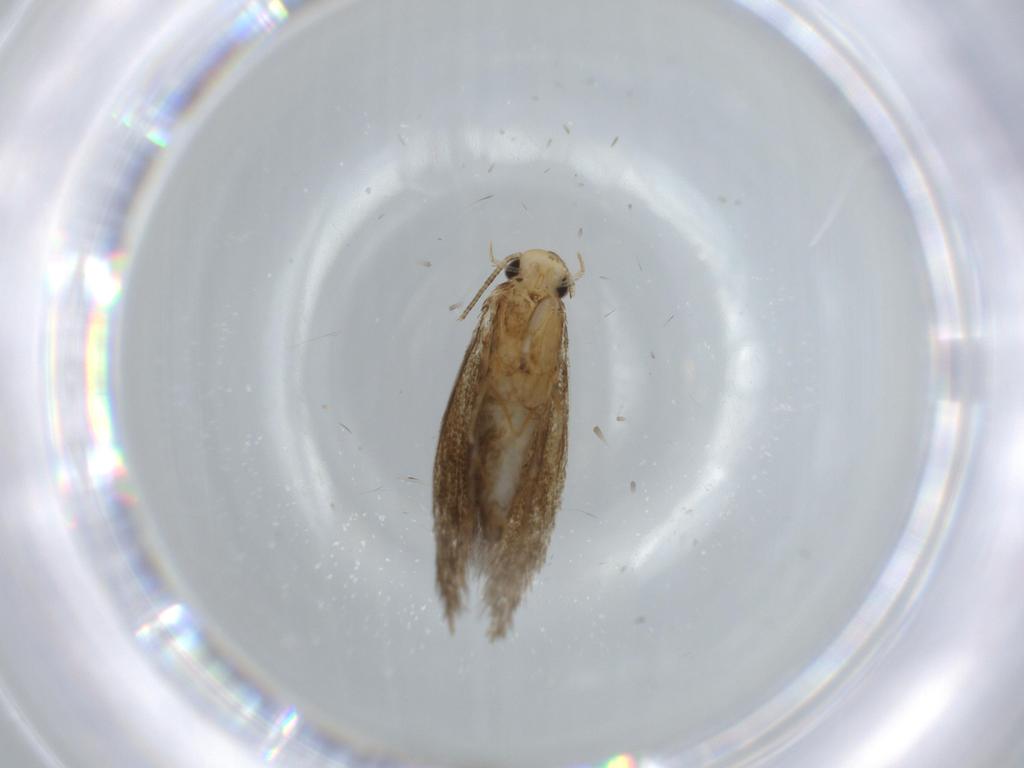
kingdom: Animalia
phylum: Arthropoda
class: Insecta
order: Lepidoptera
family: Tineidae
